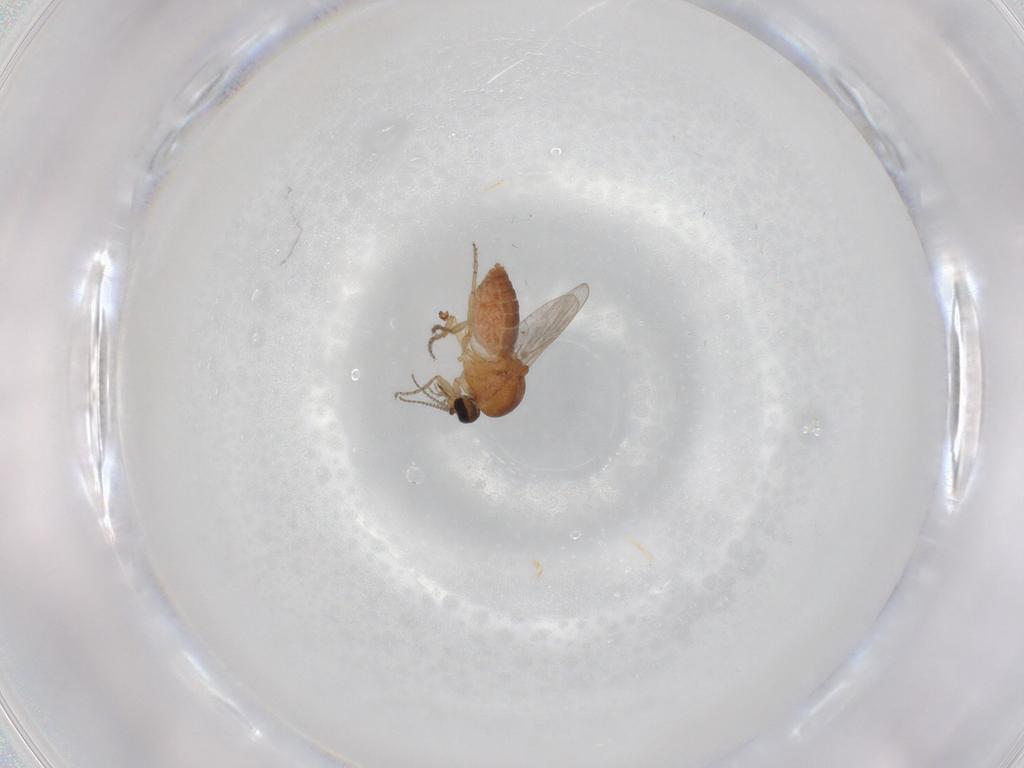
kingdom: Animalia
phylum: Arthropoda
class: Insecta
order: Diptera
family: Ceratopogonidae
